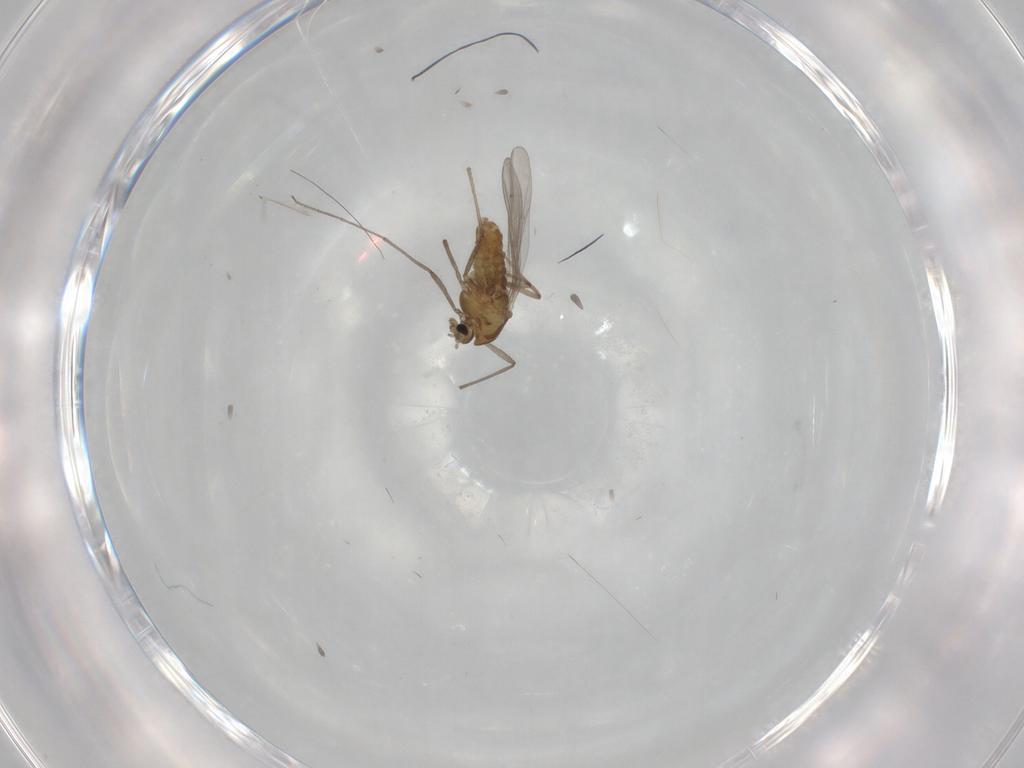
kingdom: Animalia
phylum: Arthropoda
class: Insecta
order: Diptera
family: Chironomidae
